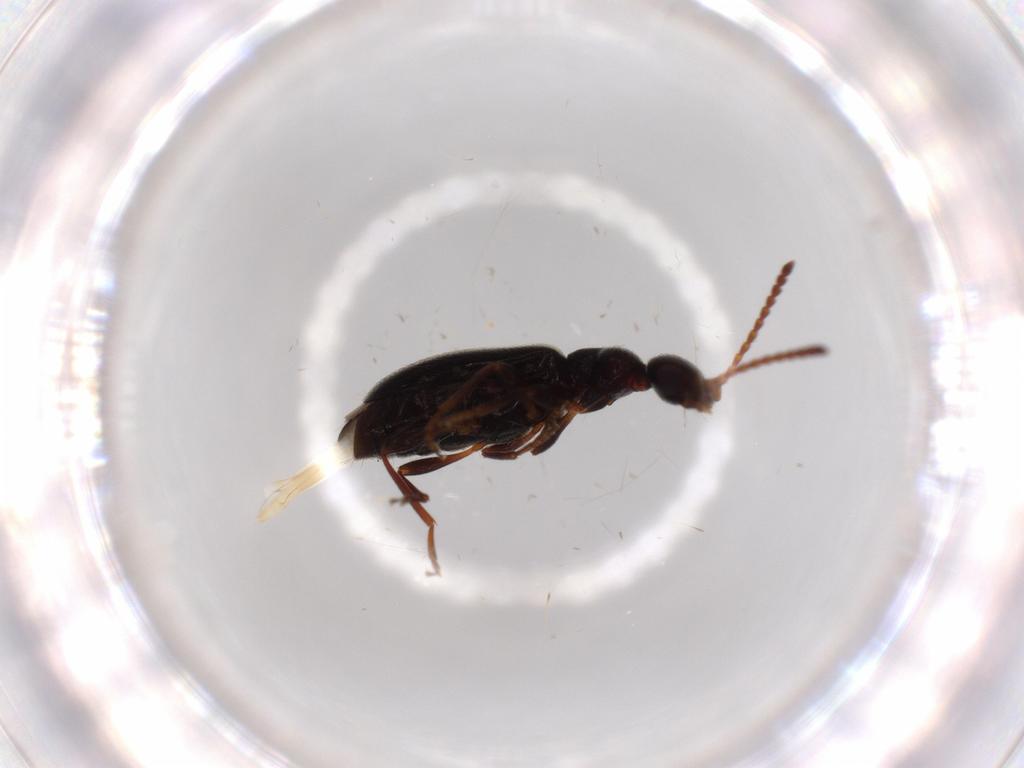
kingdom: Animalia
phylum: Arthropoda
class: Insecta
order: Coleoptera
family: Anthicidae
